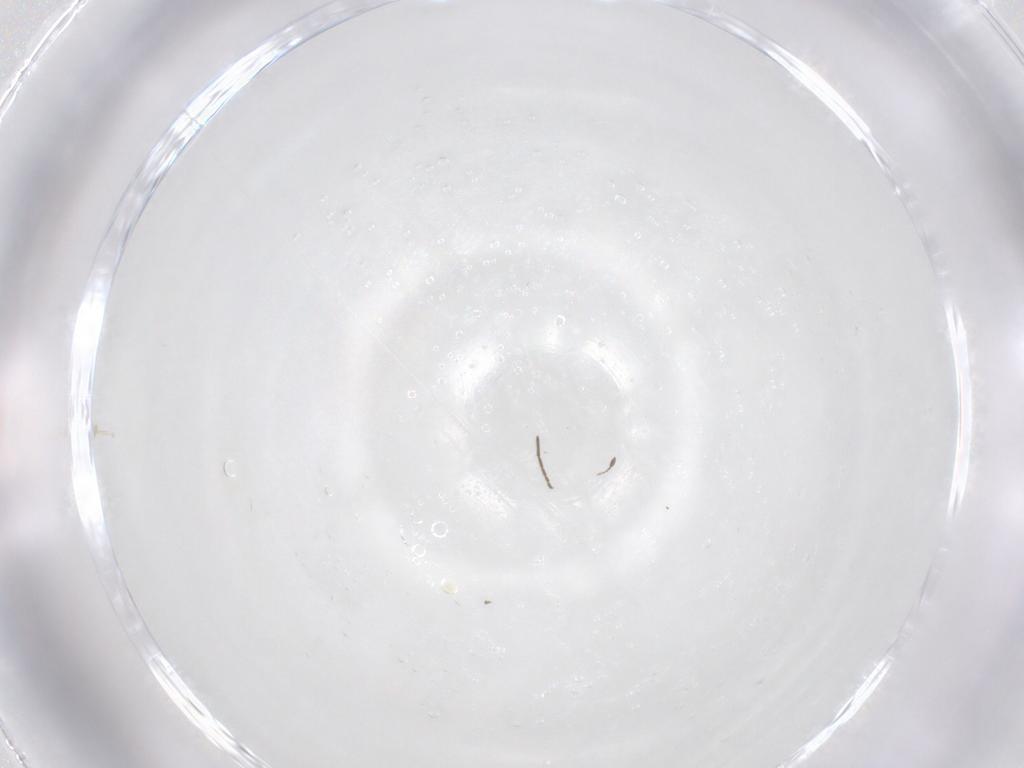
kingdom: Animalia
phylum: Arthropoda
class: Insecta
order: Hymenoptera
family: Mymaridae
